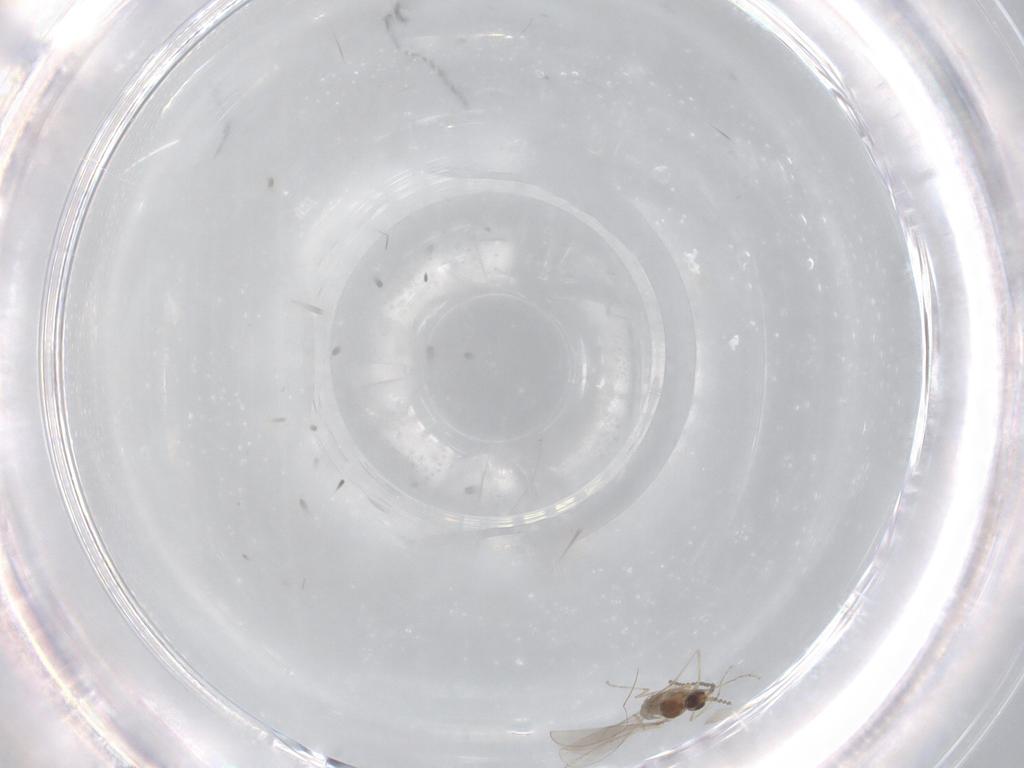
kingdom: Animalia
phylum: Arthropoda
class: Insecta
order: Diptera
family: Cecidomyiidae
